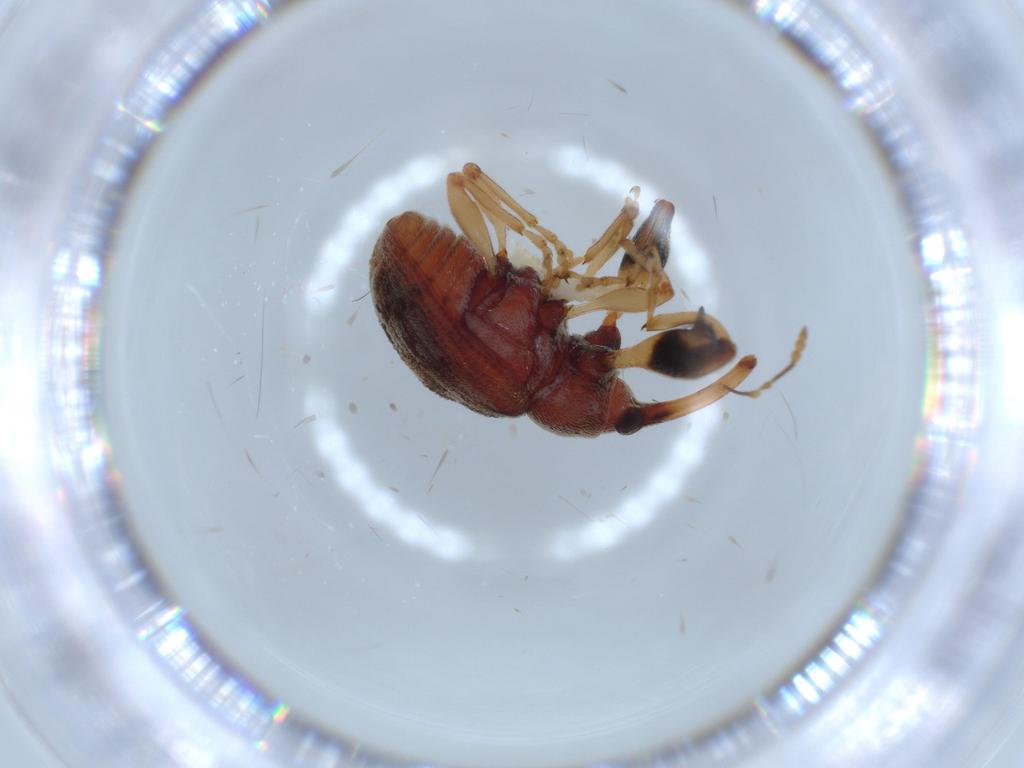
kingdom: Animalia
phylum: Arthropoda
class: Insecta
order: Coleoptera
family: Curculionidae
